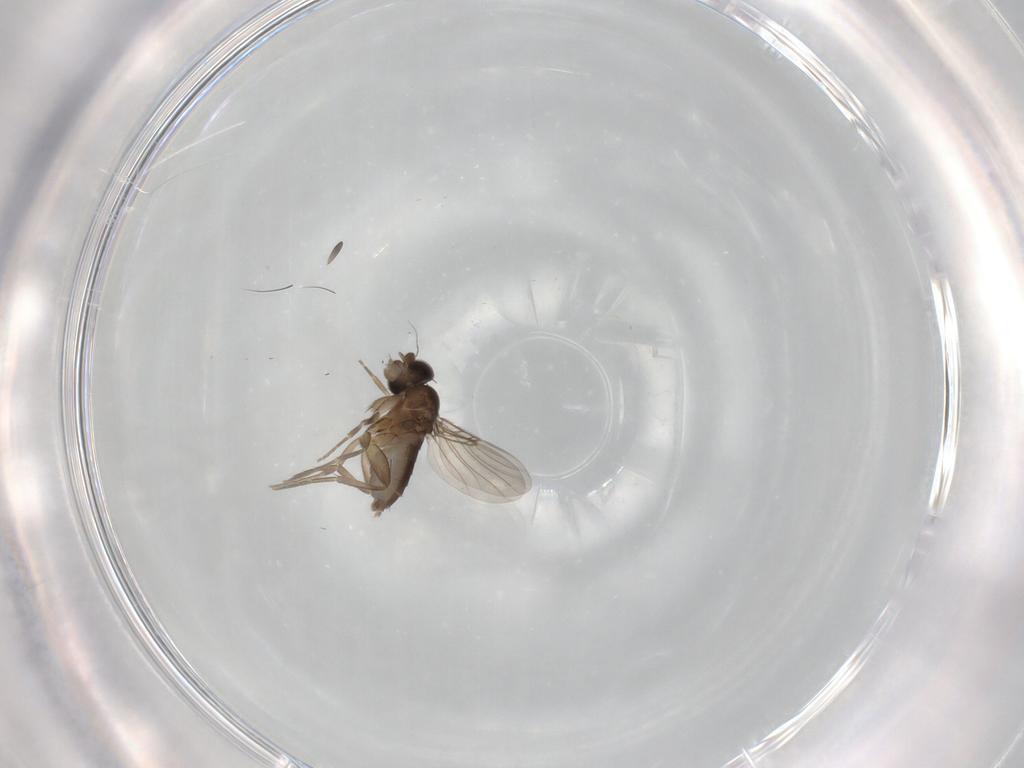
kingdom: Animalia
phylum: Arthropoda
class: Insecta
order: Diptera
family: Phoridae
